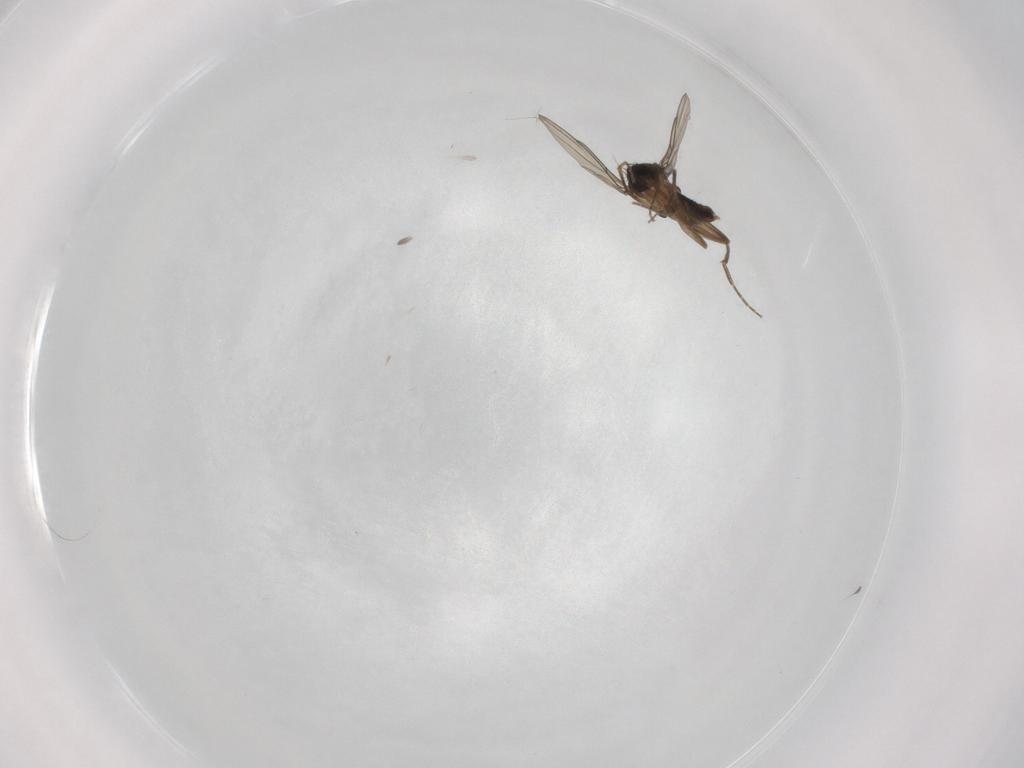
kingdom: Animalia
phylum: Arthropoda
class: Insecta
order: Diptera
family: Phoridae
